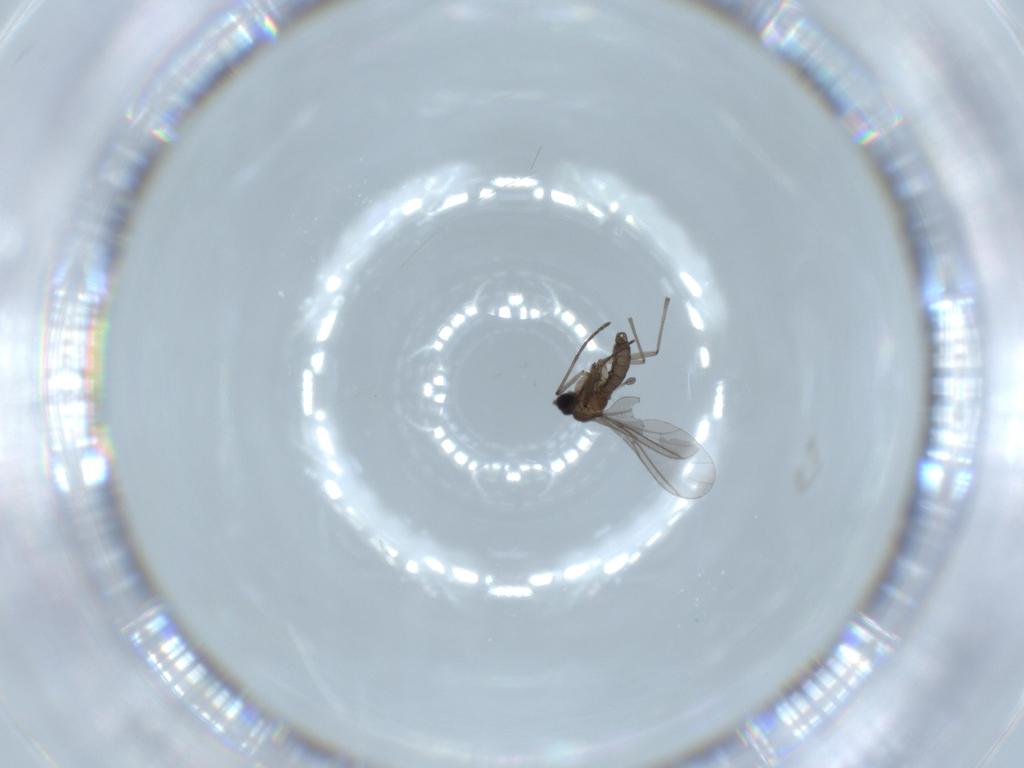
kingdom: Animalia
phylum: Arthropoda
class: Insecta
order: Diptera
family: Sciaridae
